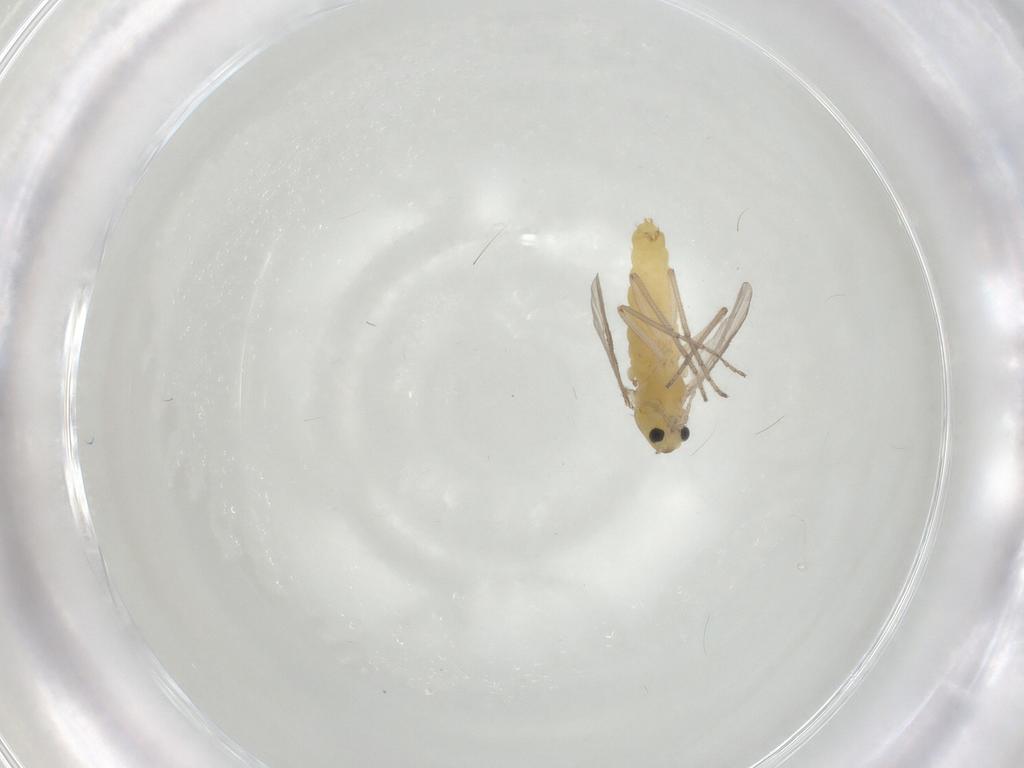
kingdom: Animalia
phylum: Arthropoda
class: Insecta
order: Diptera
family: Chironomidae
